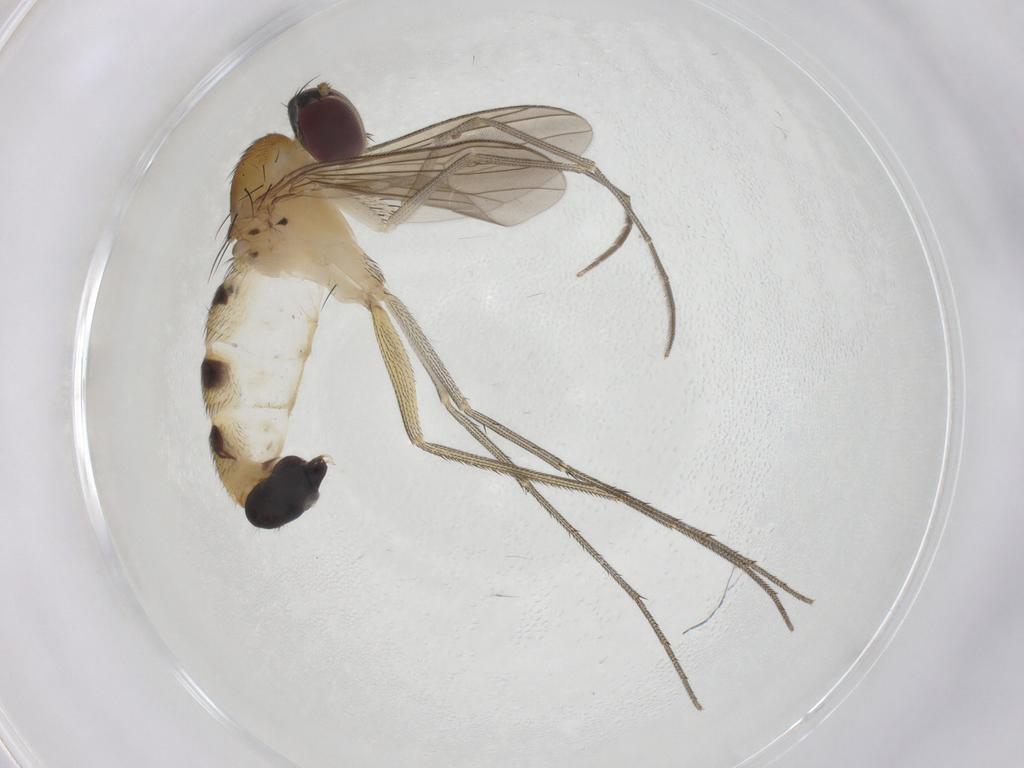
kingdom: Animalia
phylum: Arthropoda
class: Insecta
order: Diptera
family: Dolichopodidae
